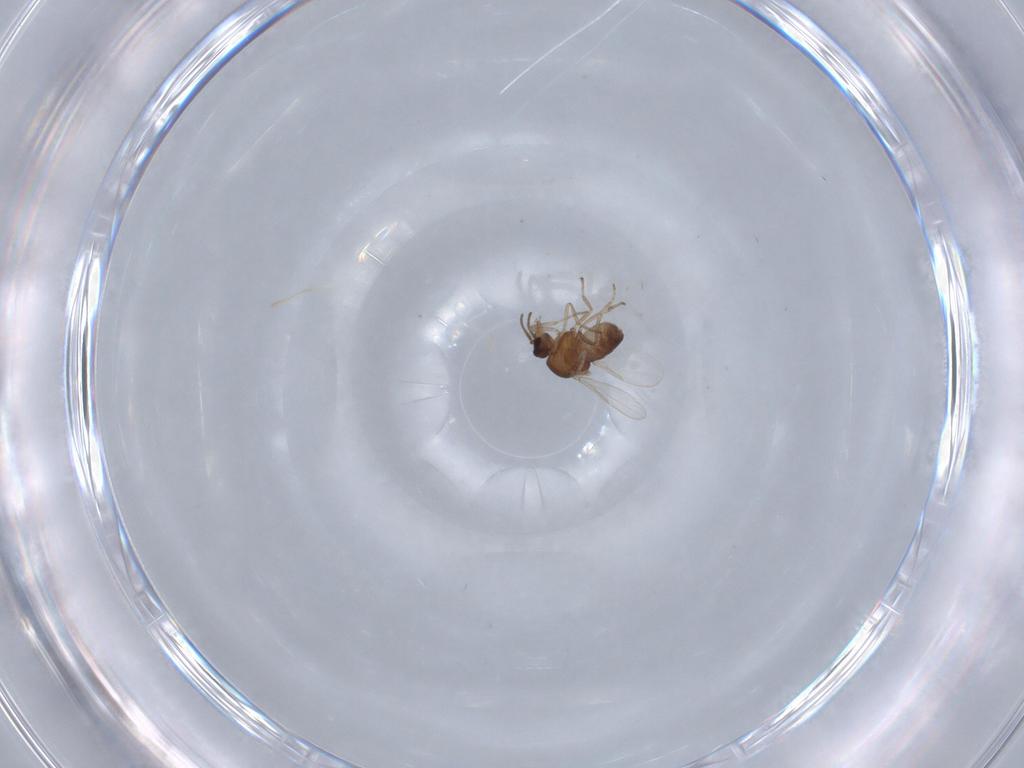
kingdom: Animalia
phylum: Arthropoda
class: Insecta
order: Diptera
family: Ceratopogonidae
